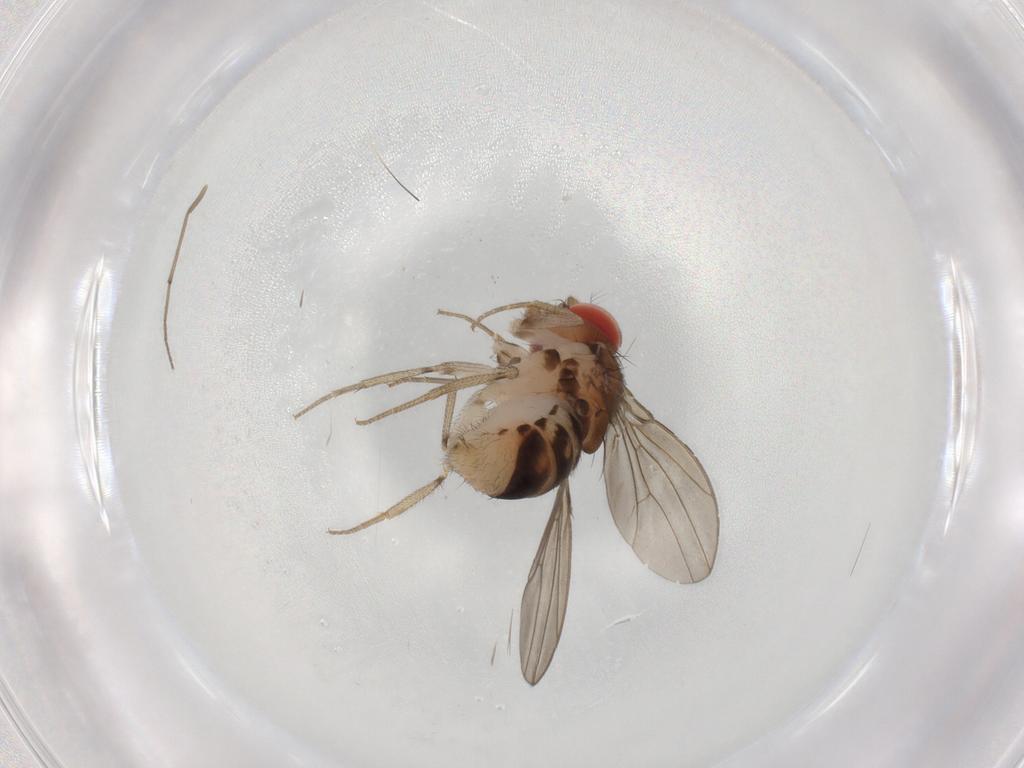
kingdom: Animalia
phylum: Arthropoda
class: Insecta
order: Diptera
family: Drosophilidae
